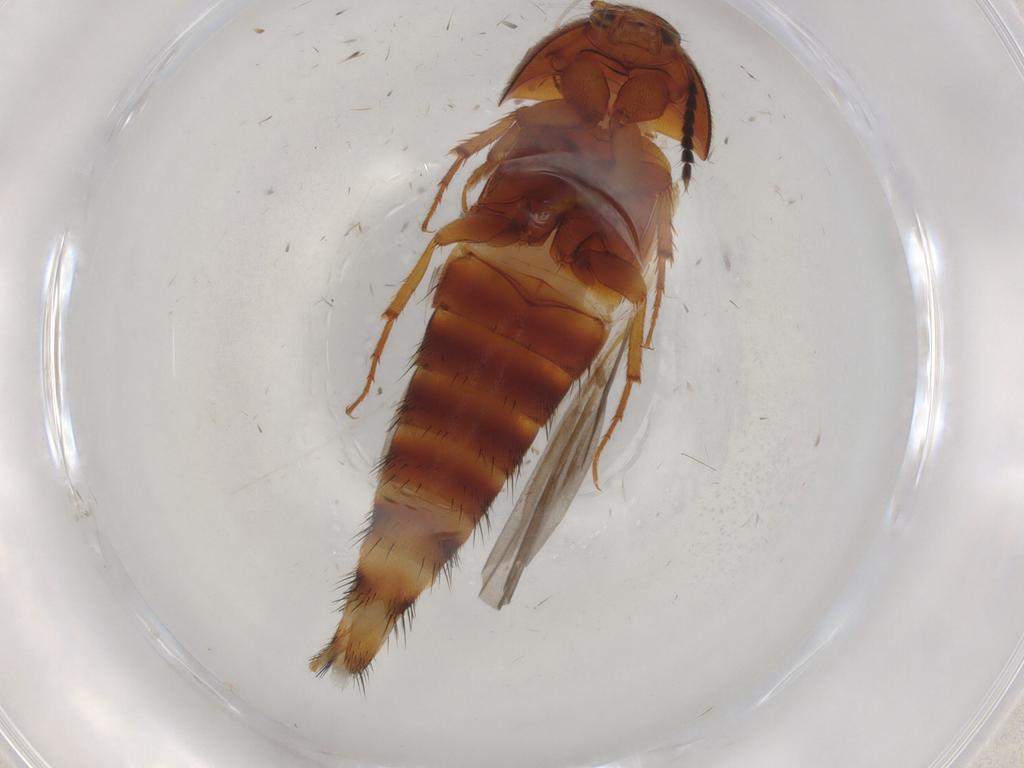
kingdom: Animalia
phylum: Arthropoda
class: Insecta
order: Coleoptera
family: Staphylinidae
